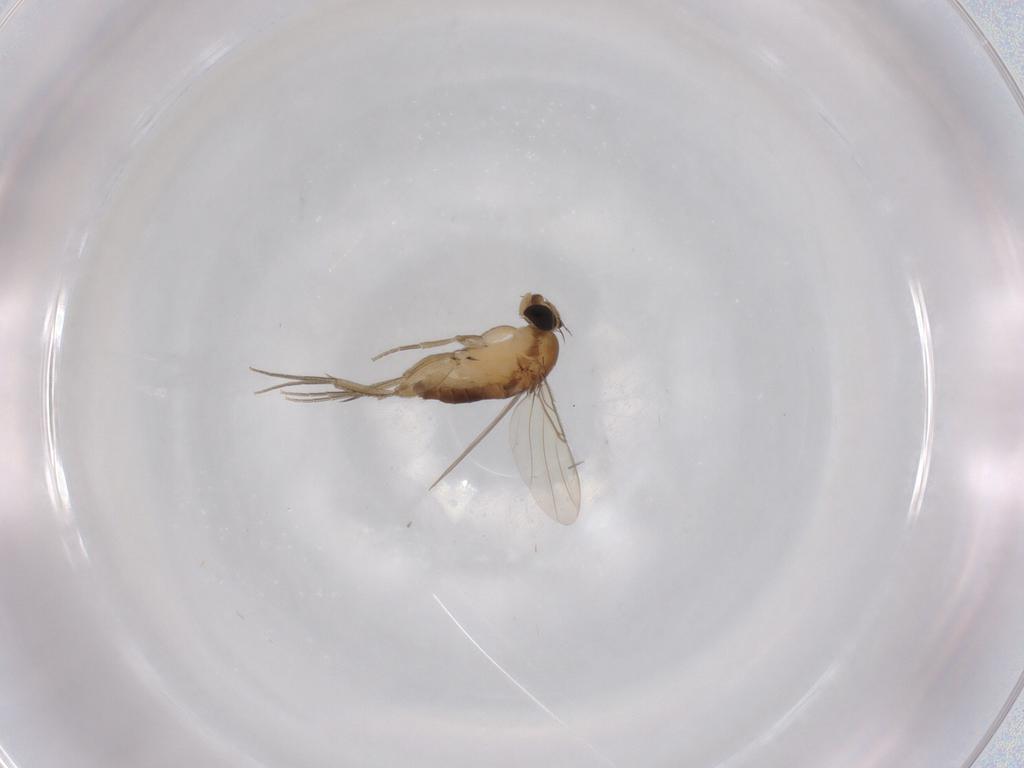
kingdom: Animalia
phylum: Arthropoda
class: Insecta
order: Diptera
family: Phoridae
